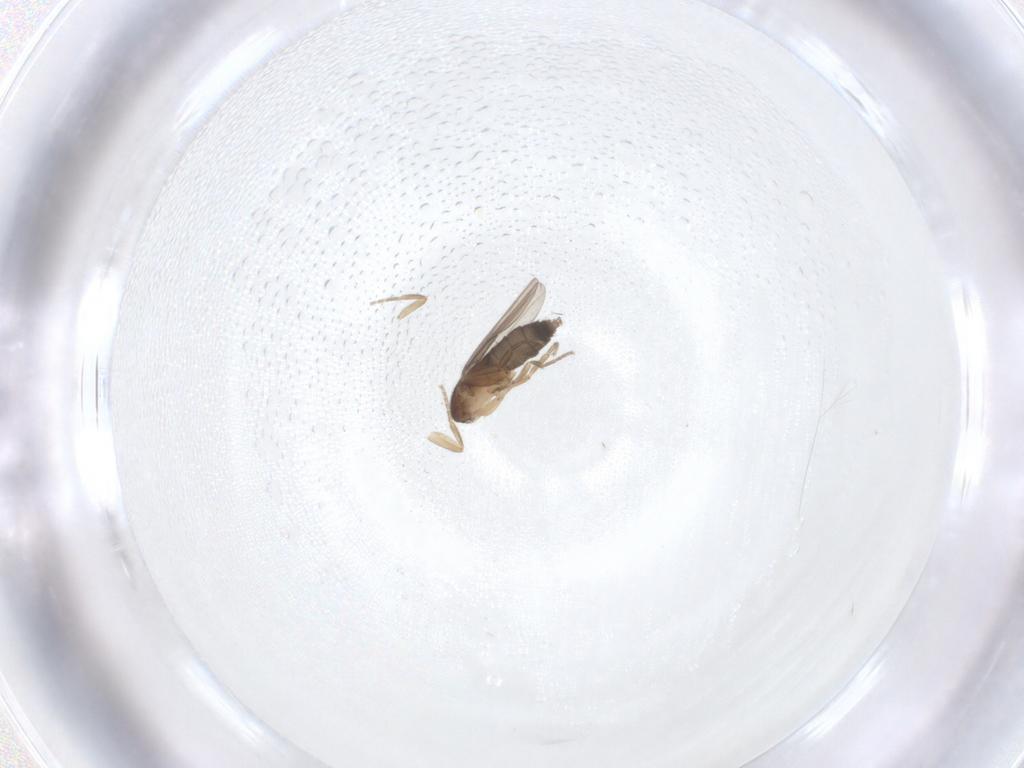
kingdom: Animalia
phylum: Arthropoda
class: Insecta
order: Diptera
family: Phoridae
